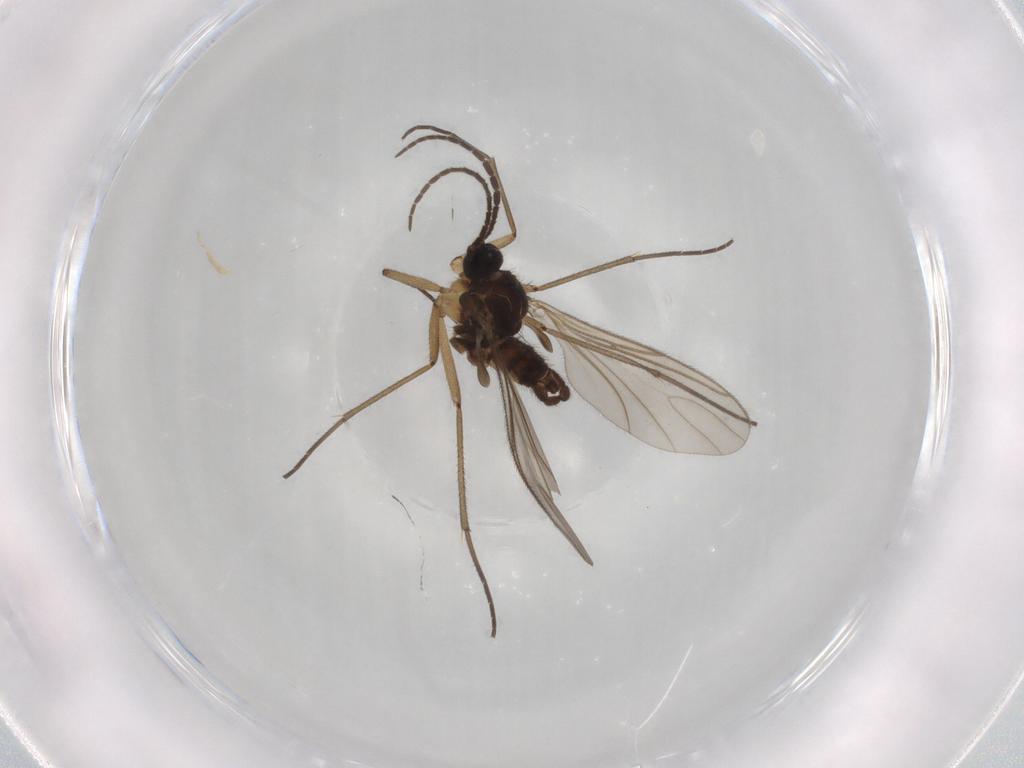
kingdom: Animalia
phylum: Arthropoda
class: Insecta
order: Diptera
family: Sciaridae
